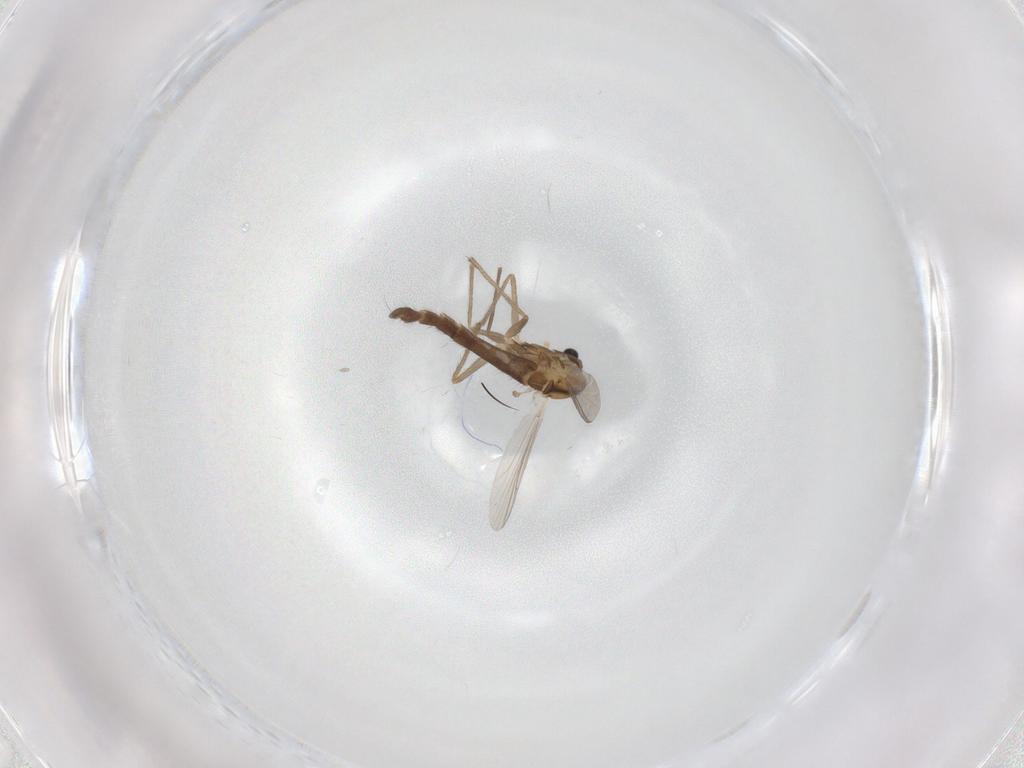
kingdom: Animalia
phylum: Arthropoda
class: Insecta
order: Diptera
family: Chironomidae
